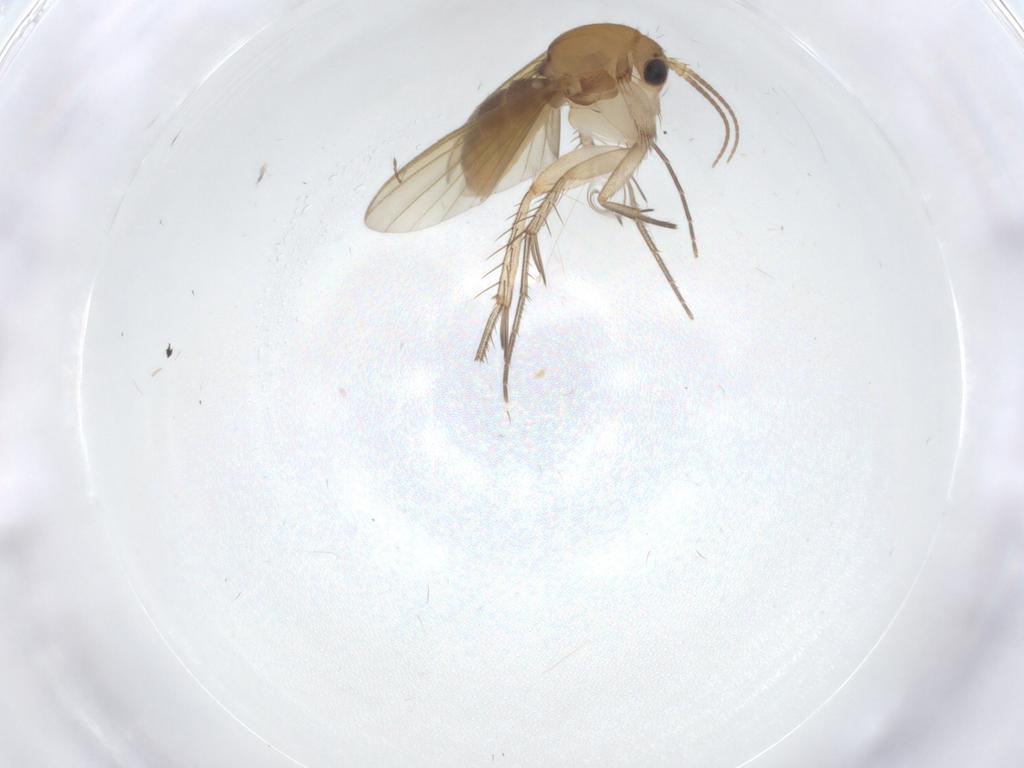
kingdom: Animalia
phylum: Arthropoda
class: Insecta
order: Diptera
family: Mycetophilidae
